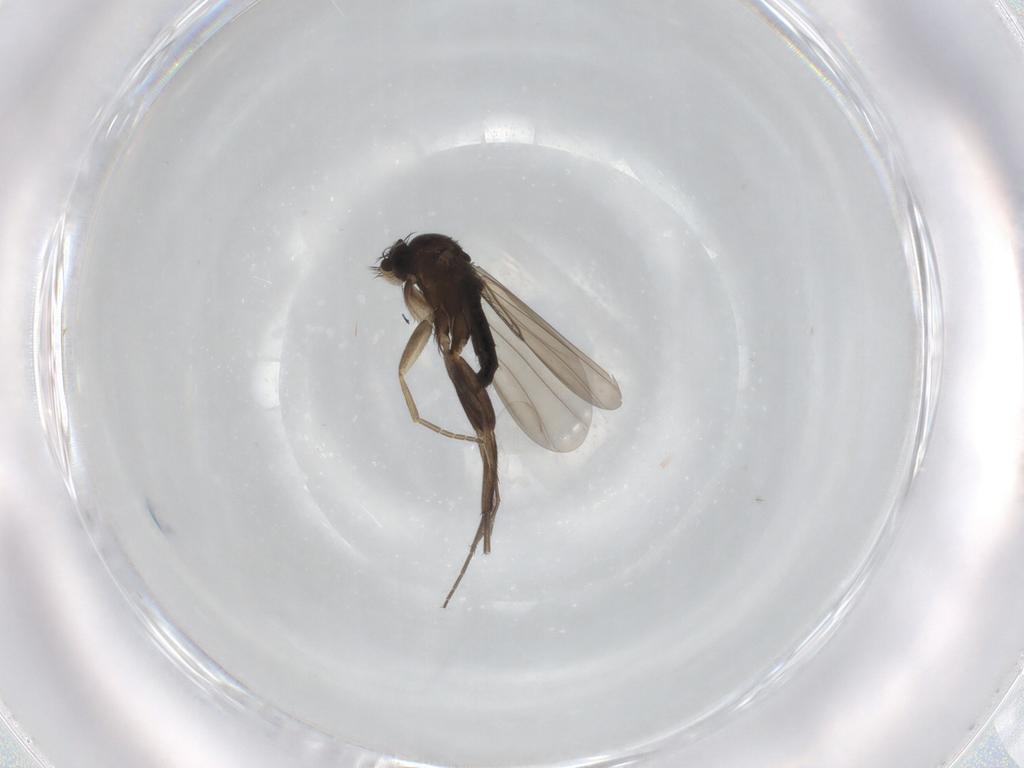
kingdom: Animalia
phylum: Arthropoda
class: Insecta
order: Diptera
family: Phoridae
